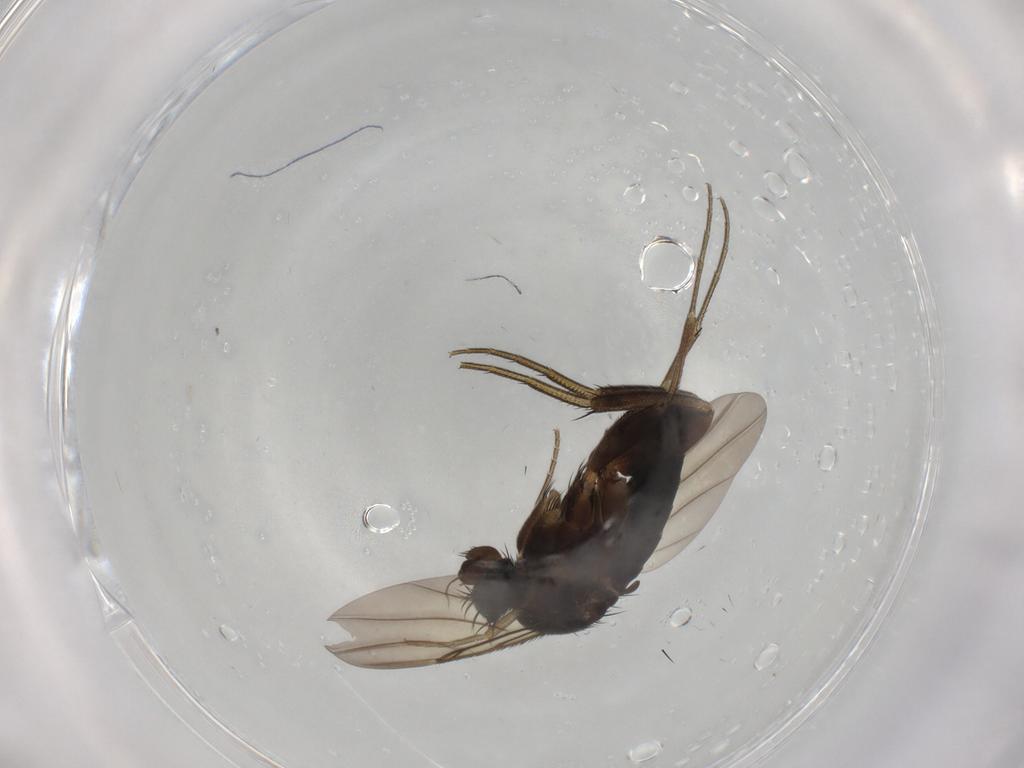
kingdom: Animalia
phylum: Arthropoda
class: Insecta
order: Diptera
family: Phoridae
